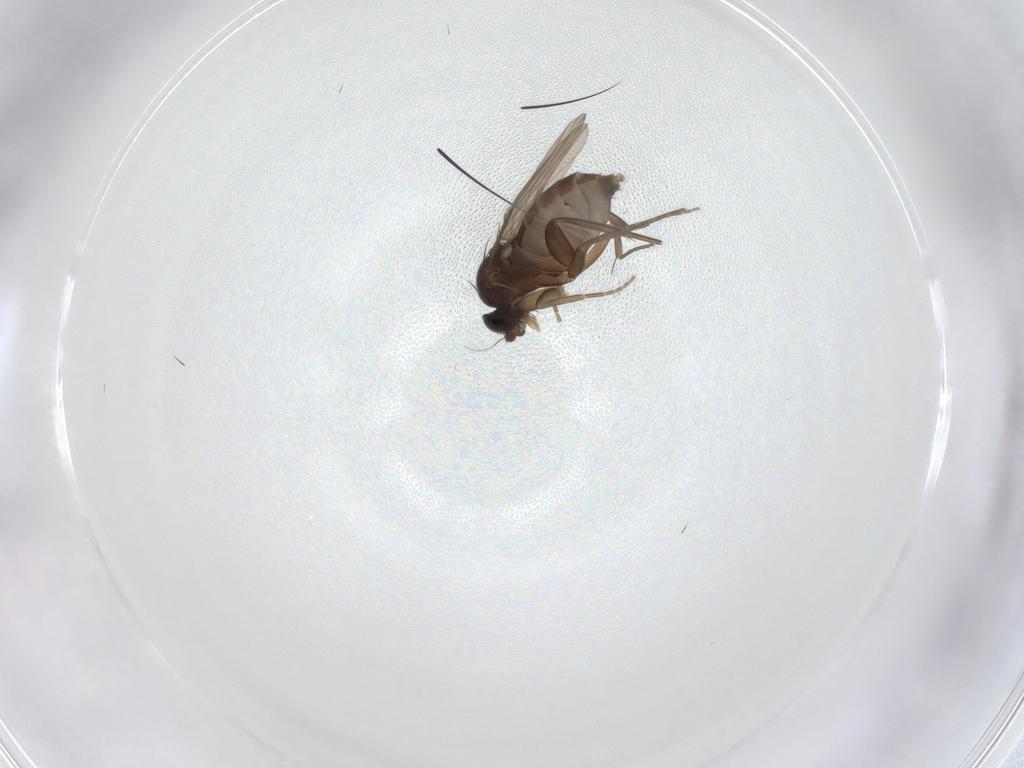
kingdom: Animalia
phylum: Arthropoda
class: Insecta
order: Diptera
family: Phoridae
